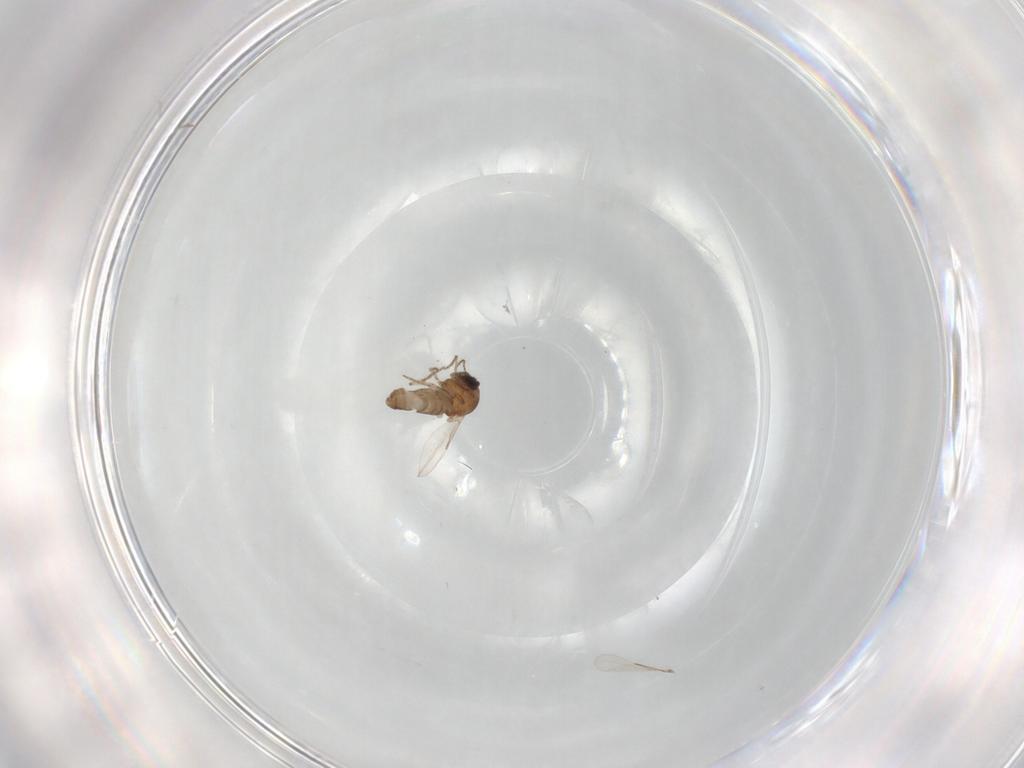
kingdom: Animalia
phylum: Arthropoda
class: Insecta
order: Diptera
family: Ceratopogonidae
